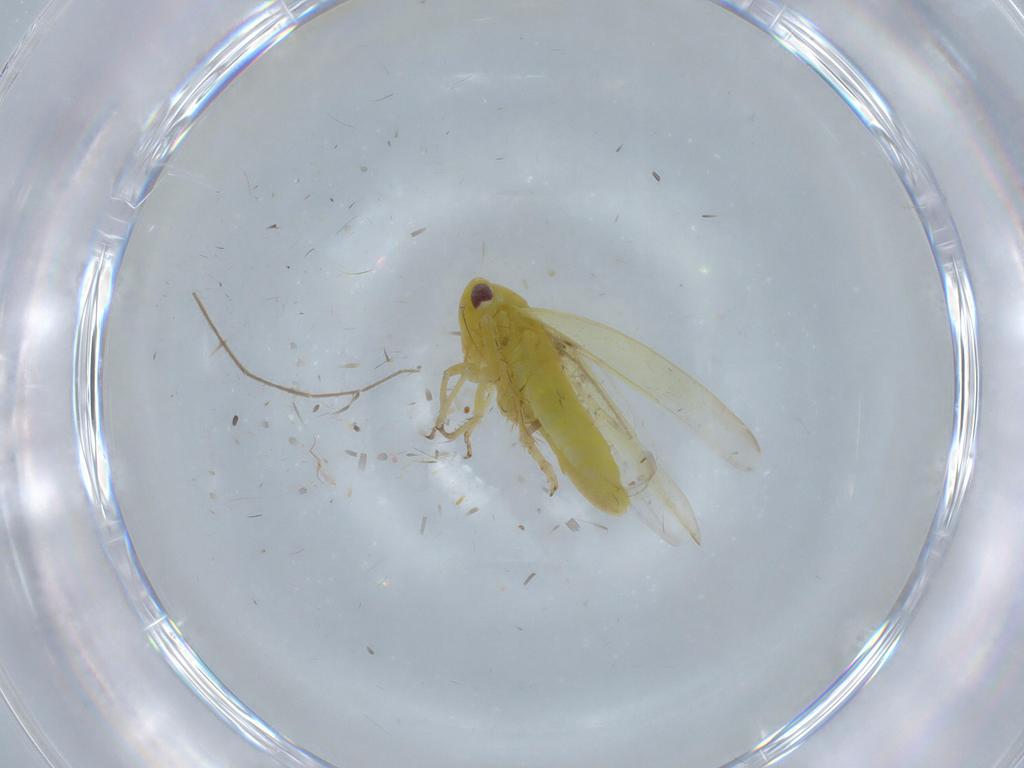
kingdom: Animalia
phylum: Arthropoda
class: Insecta
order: Hemiptera
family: Cicadellidae
